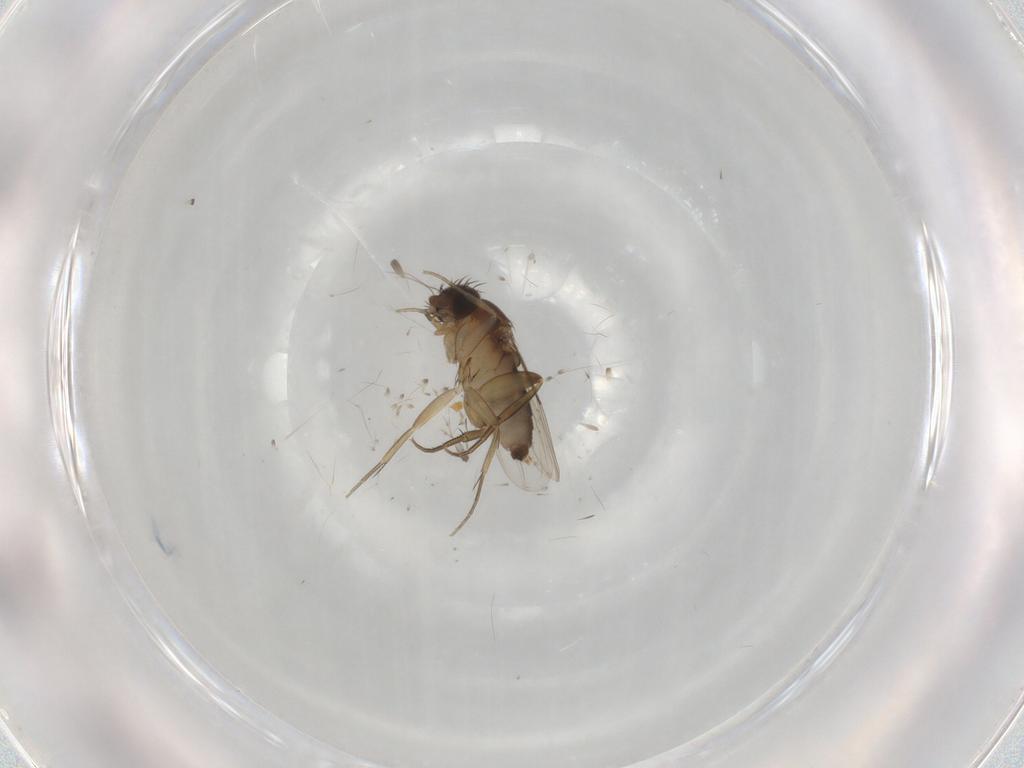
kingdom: Animalia
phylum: Arthropoda
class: Insecta
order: Diptera
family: Phoridae
